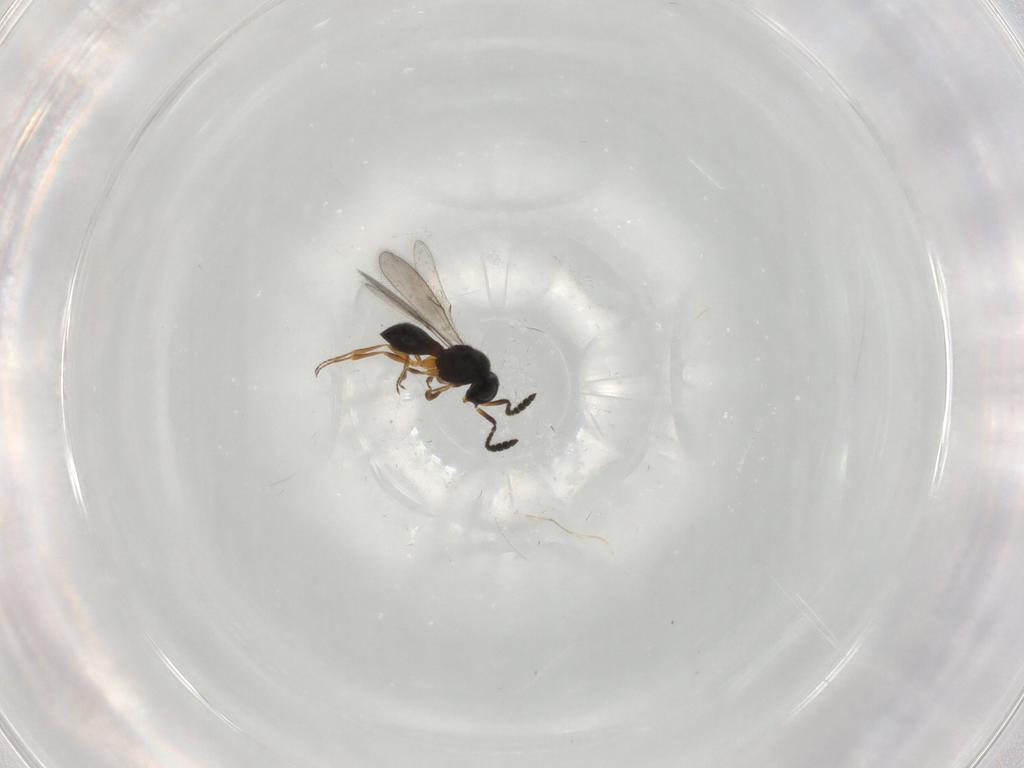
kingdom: Animalia
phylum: Arthropoda
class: Insecta
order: Hymenoptera
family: Scelionidae
